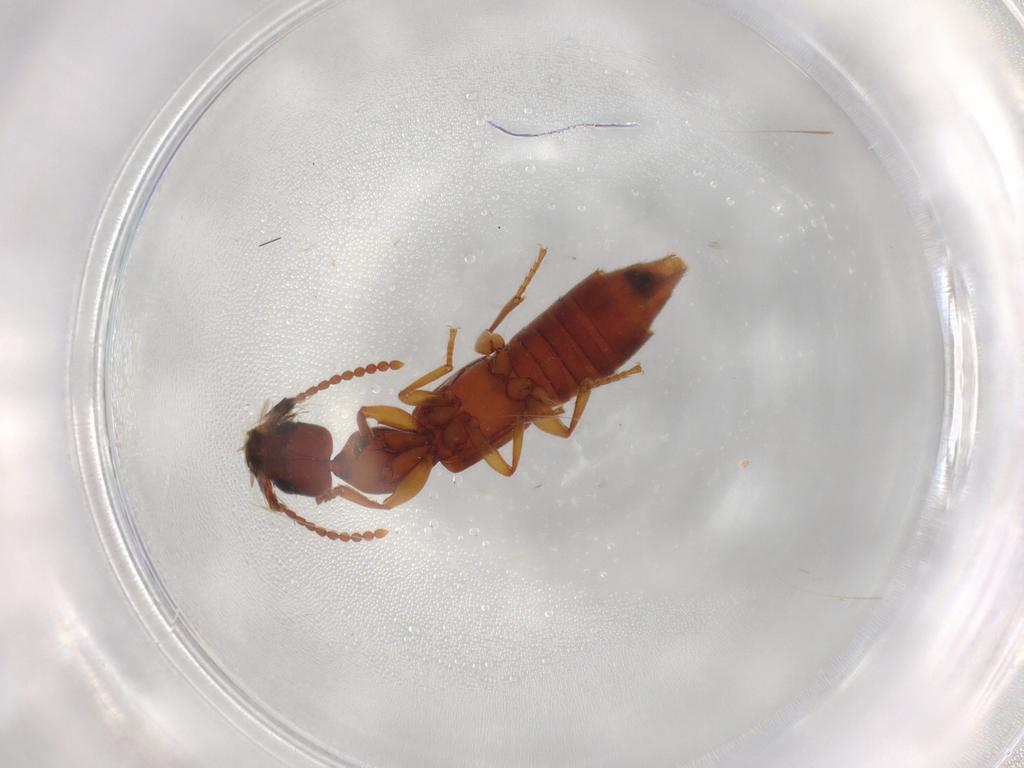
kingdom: Animalia
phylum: Arthropoda
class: Insecta
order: Coleoptera
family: Staphylinidae
